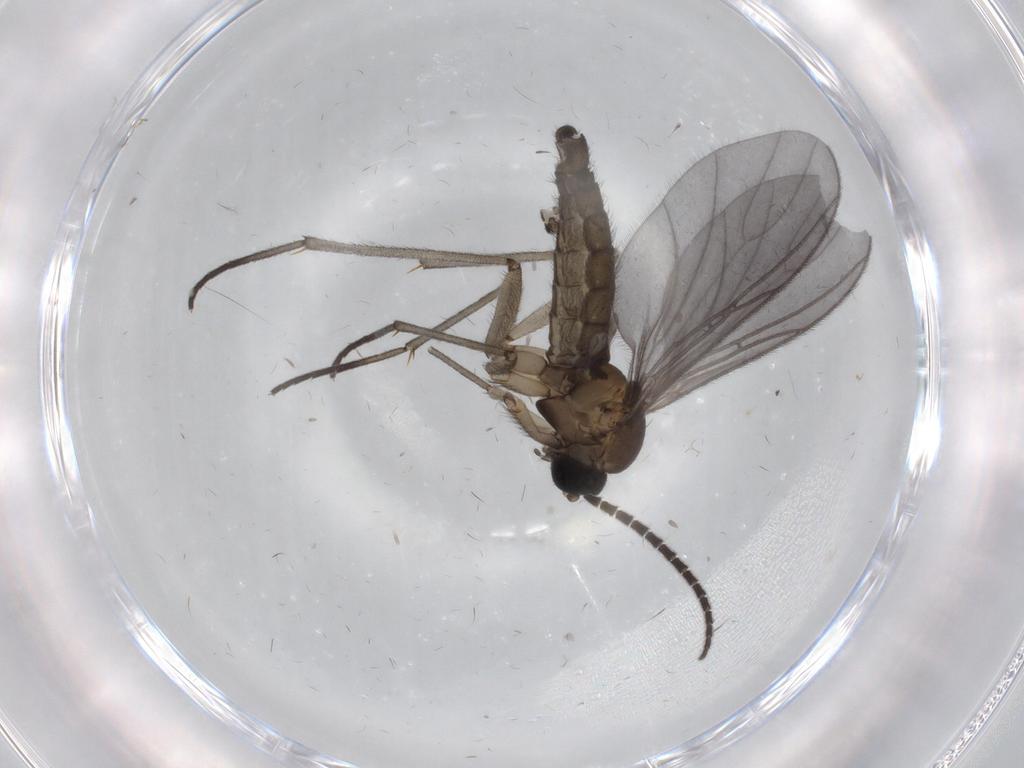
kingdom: Animalia
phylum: Arthropoda
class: Insecta
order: Diptera
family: Sciaridae
